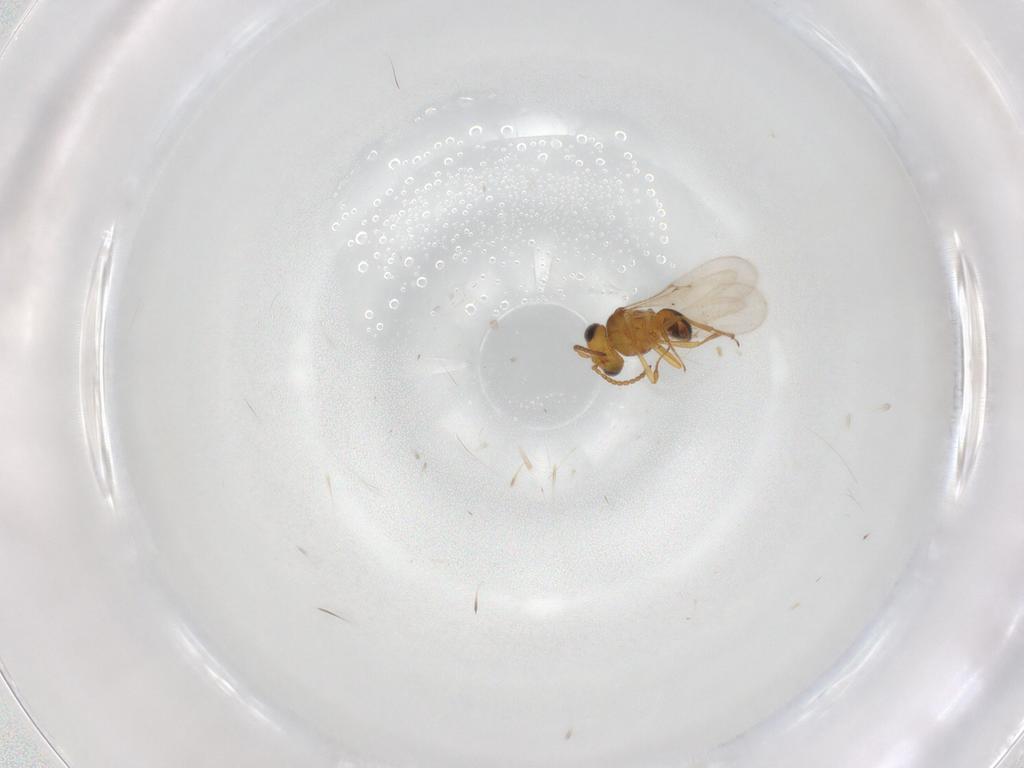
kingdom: Animalia
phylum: Arthropoda
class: Insecta
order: Hymenoptera
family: Scelionidae
